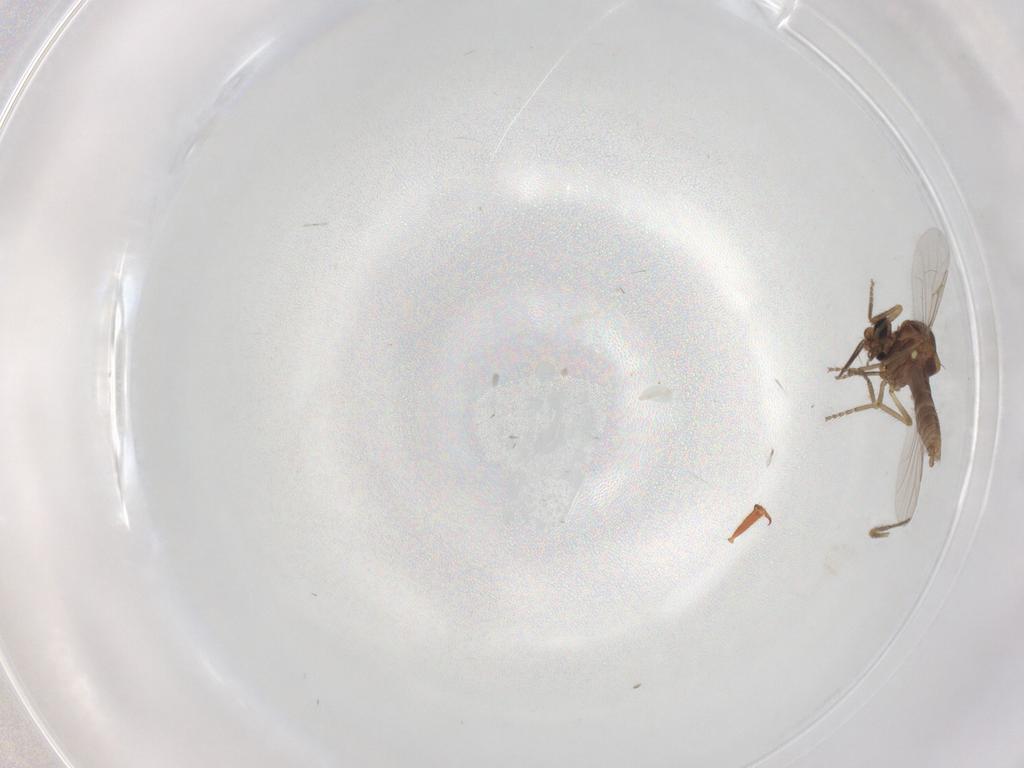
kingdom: Animalia
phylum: Arthropoda
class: Insecta
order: Diptera
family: Ceratopogonidae
